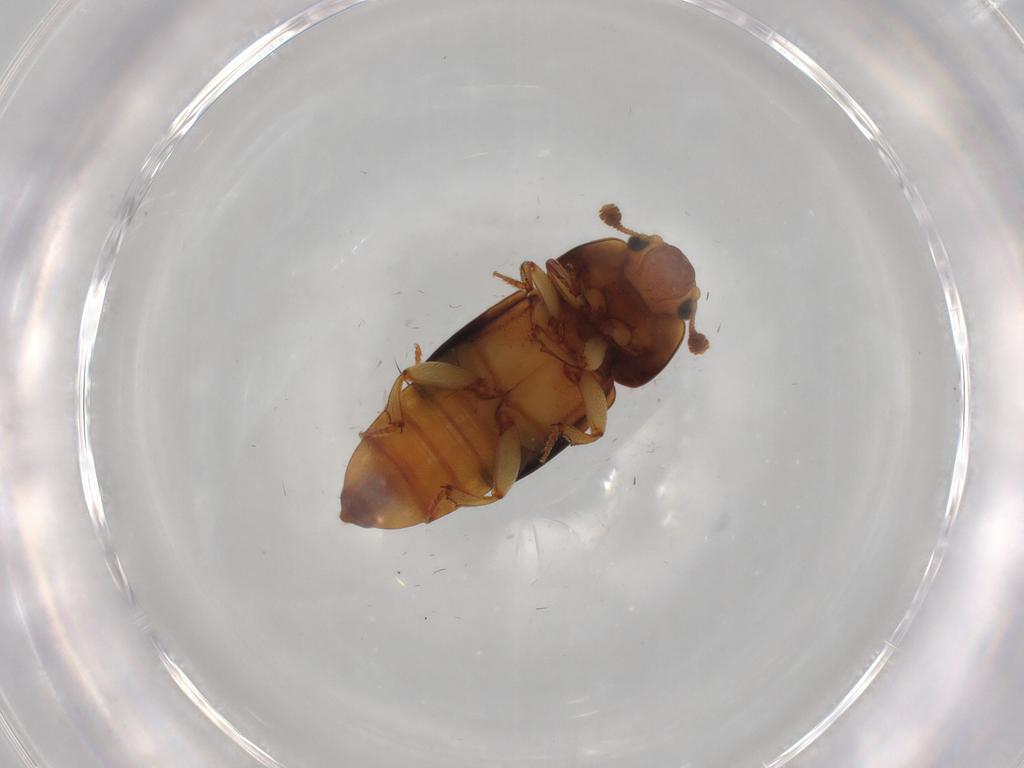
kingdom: Animalia
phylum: Arthropoda
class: Insecta
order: Coleoptera
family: Nitidulidae
